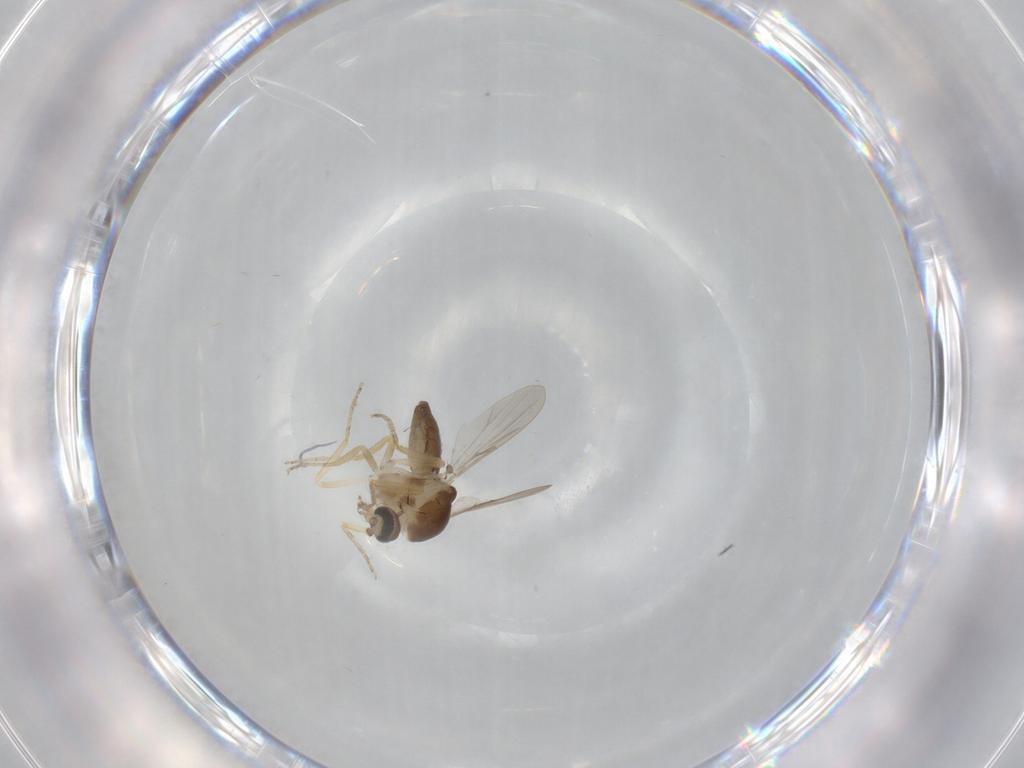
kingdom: Animalia
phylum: Arthropoda
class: Insecta
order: Diptera
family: Ceratopogonidae
